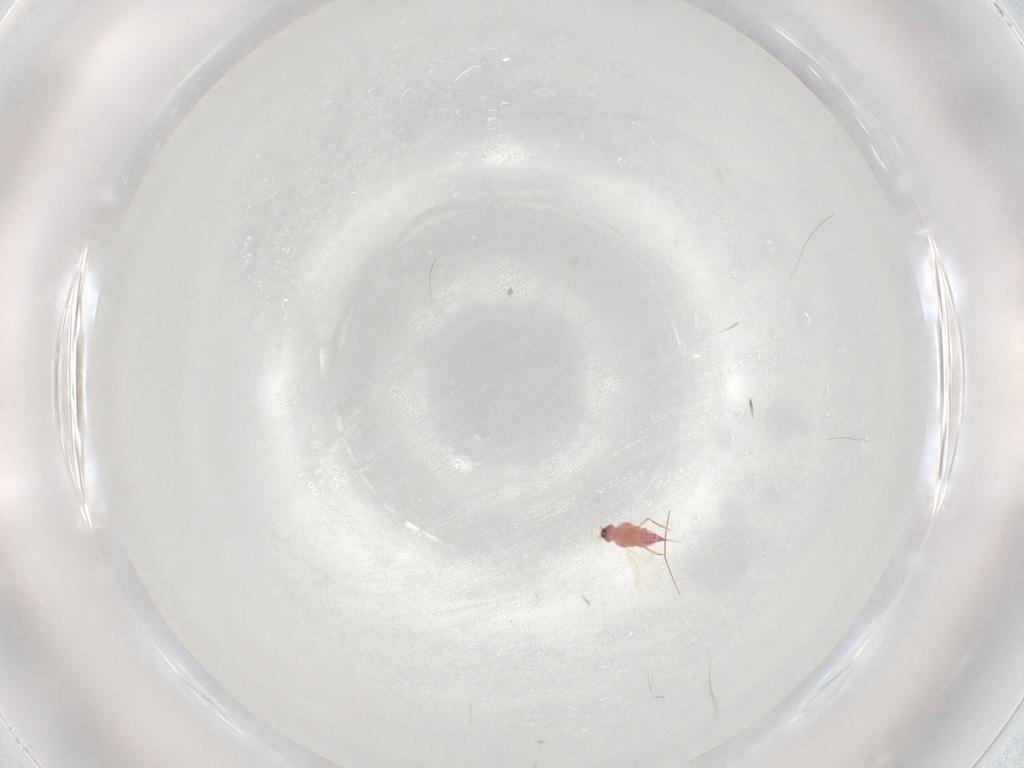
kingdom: Animalia
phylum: Arthropoda
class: Insecta
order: Hemiptera
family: Cicadellidae
